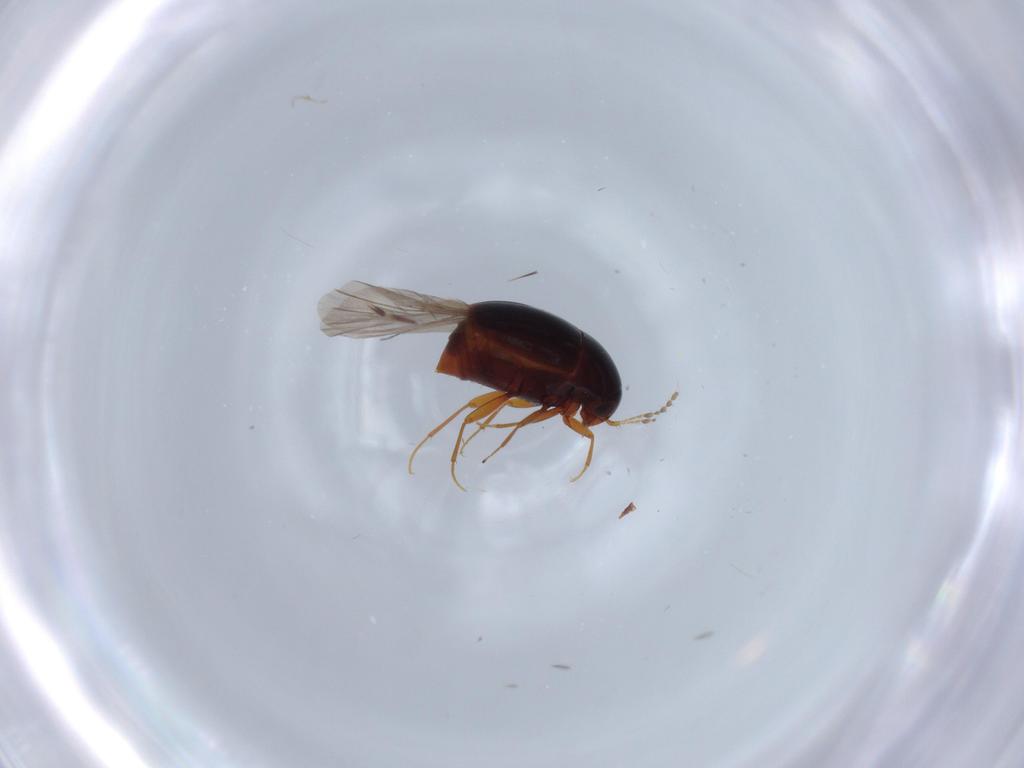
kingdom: Animalia
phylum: Arthropoda
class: Insecta
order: Coleoptera
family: Staphylinidae
